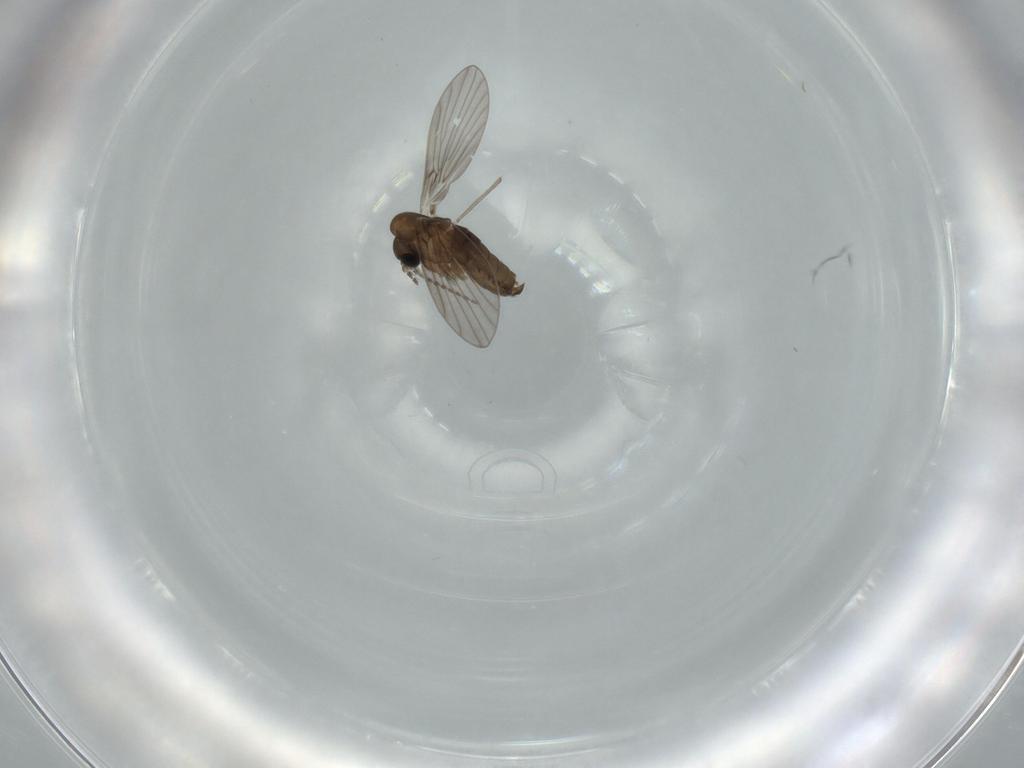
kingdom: Animalia
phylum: Arthropoda
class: Insecta
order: Diptera
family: Psychodidae
